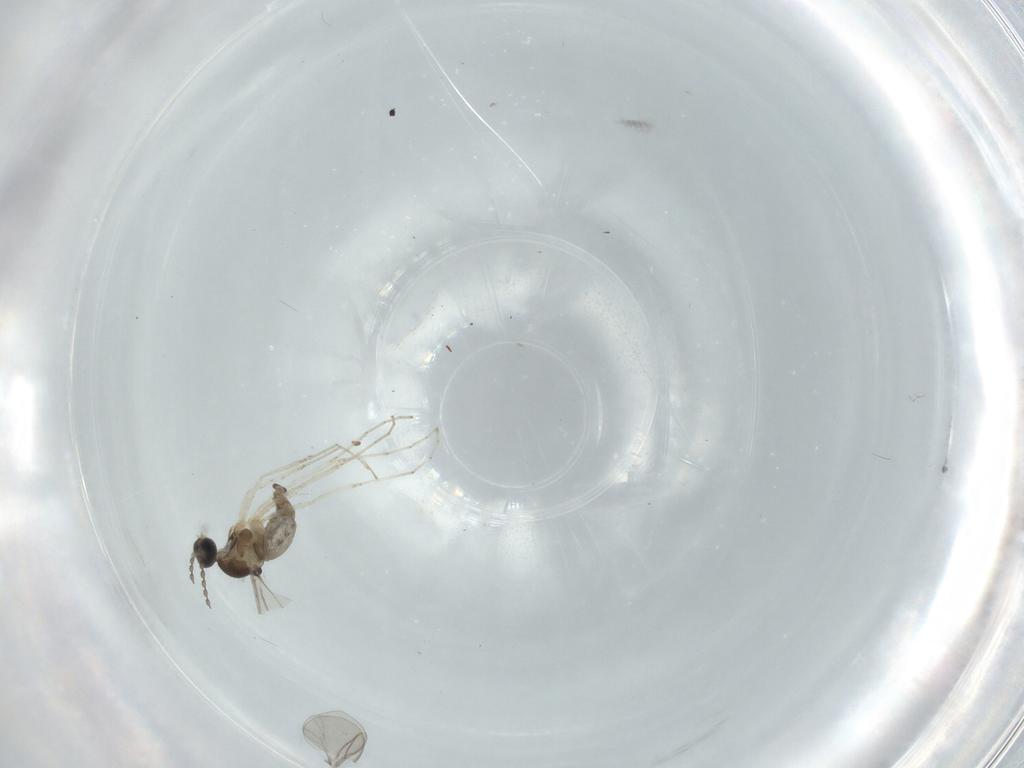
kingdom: Animalia
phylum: Arthropoda
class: Insecta
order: Diptera
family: Cecidomyiidae
